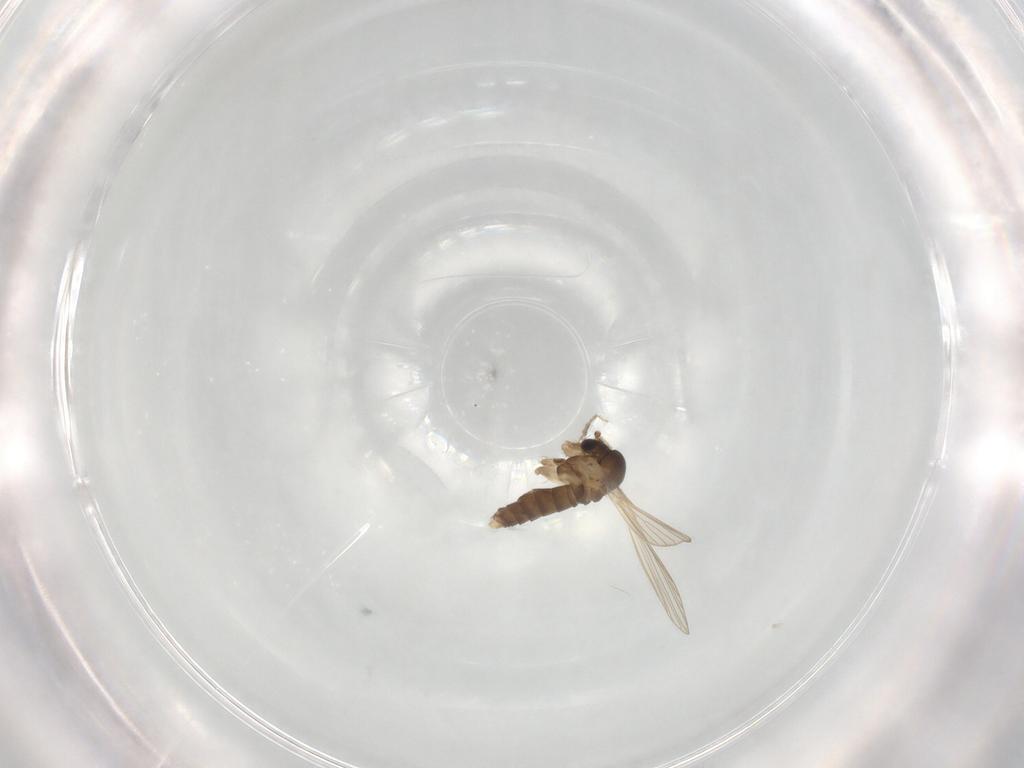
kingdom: Animalia
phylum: Arthropoda
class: Insecta
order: Diptera
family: Psychodidae
